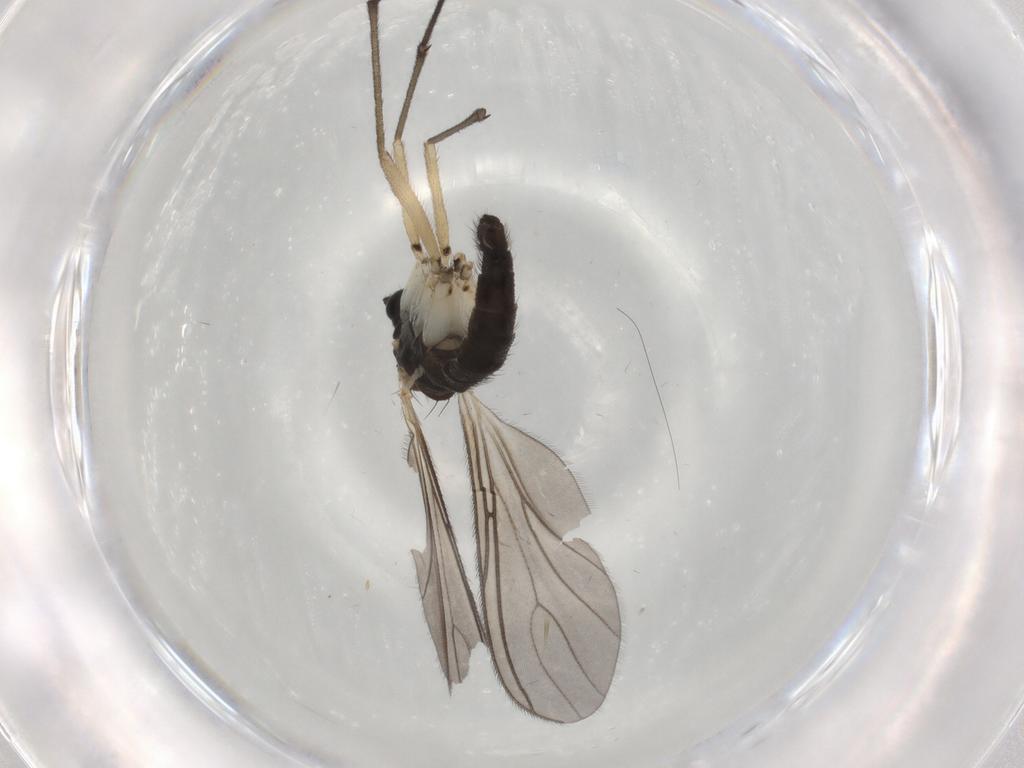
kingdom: Animalia
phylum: Arthropoda
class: Insecta
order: Diptera
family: Sciaridae
